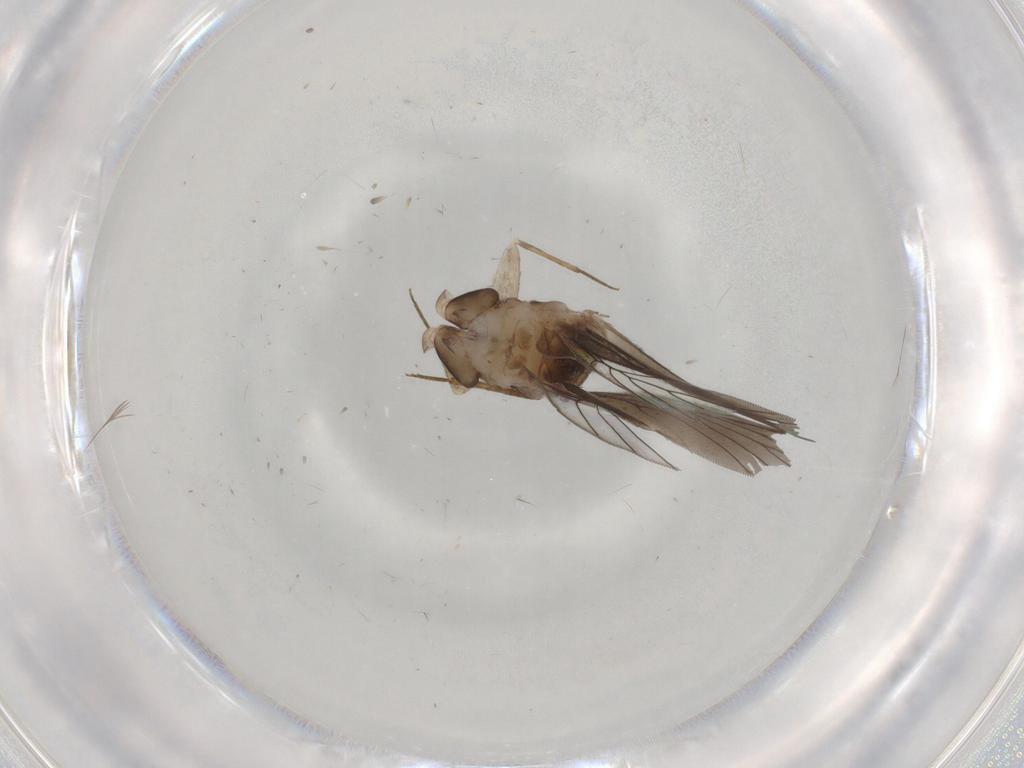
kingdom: Animalia
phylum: Arthropoda
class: Insecta
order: Psocodea
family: Lepidopsocidae
